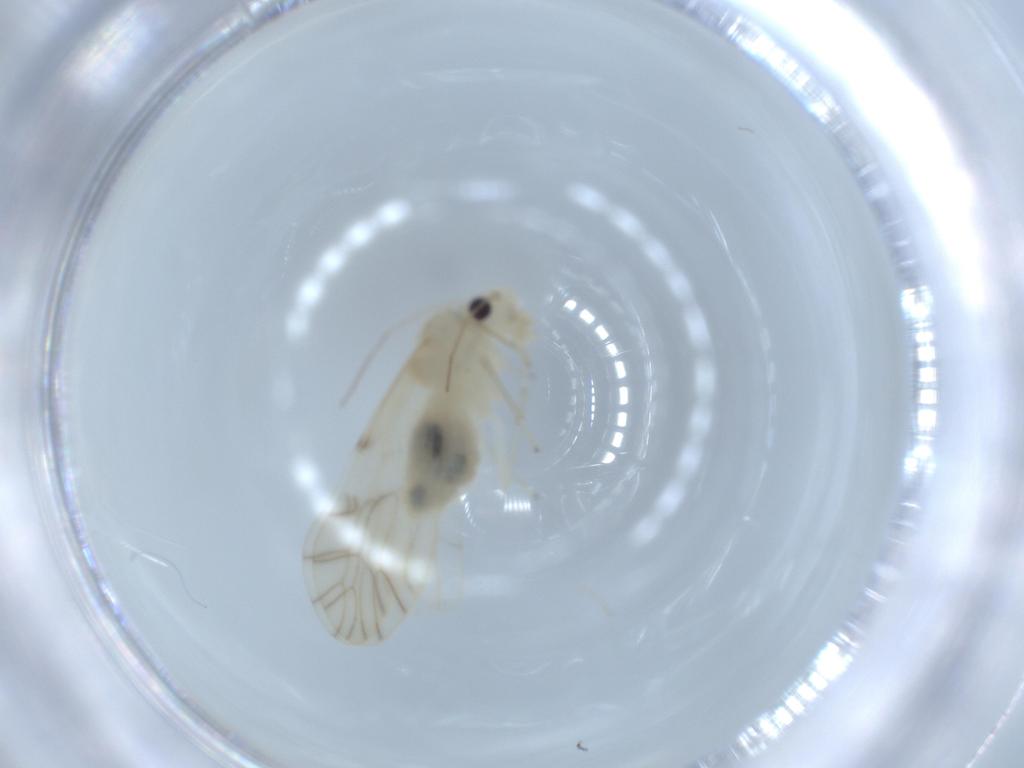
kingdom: Animalia
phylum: Arthropoda
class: Insecta
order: Psocodea
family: Caeciliusidae
